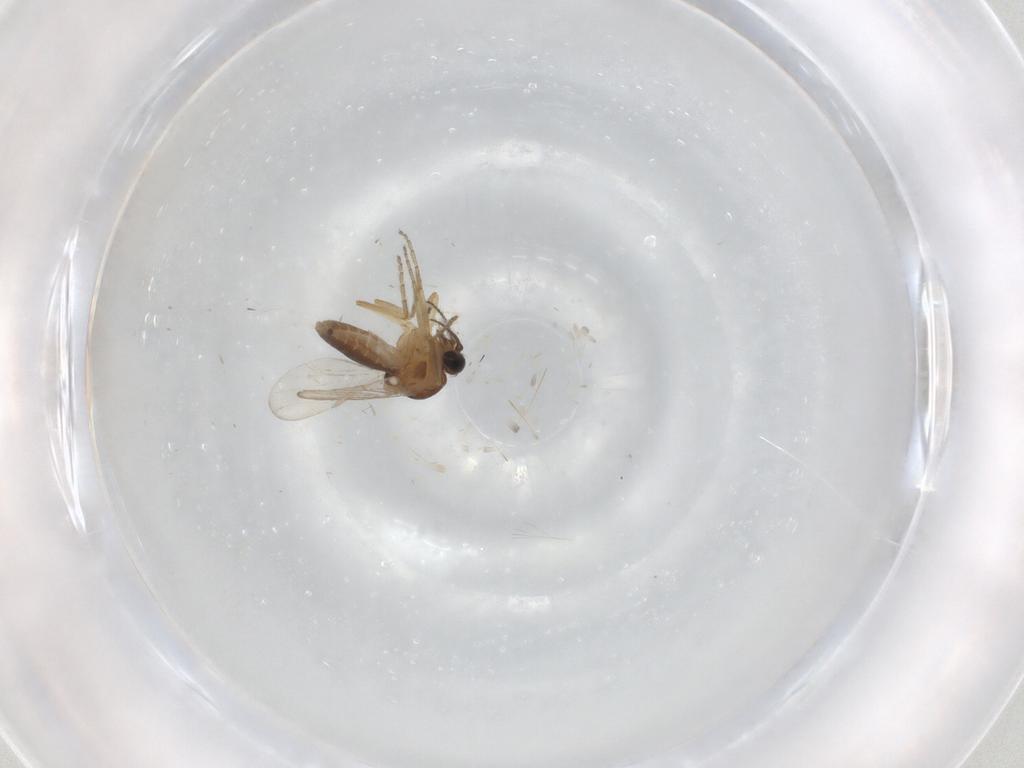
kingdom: Animalia
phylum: Arthropoda
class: Insecta
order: Diptera
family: Ceratopogonidae
